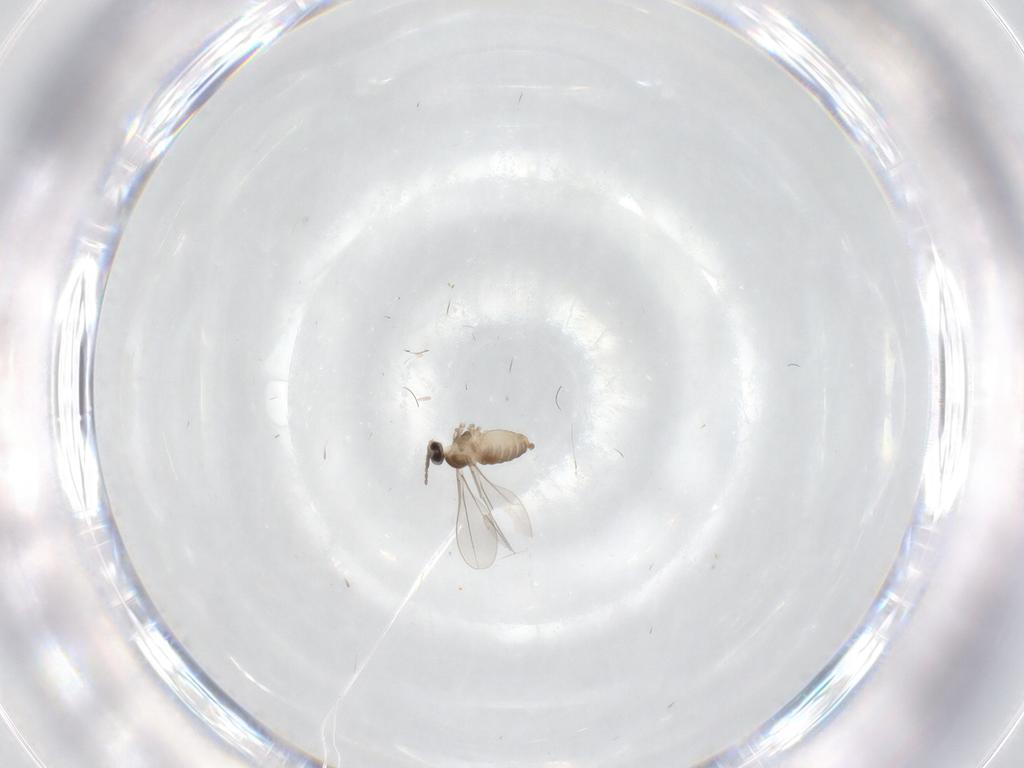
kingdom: Animalia
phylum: Arthropoda
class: Insecta
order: Diptera
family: Cecidomyiidae
